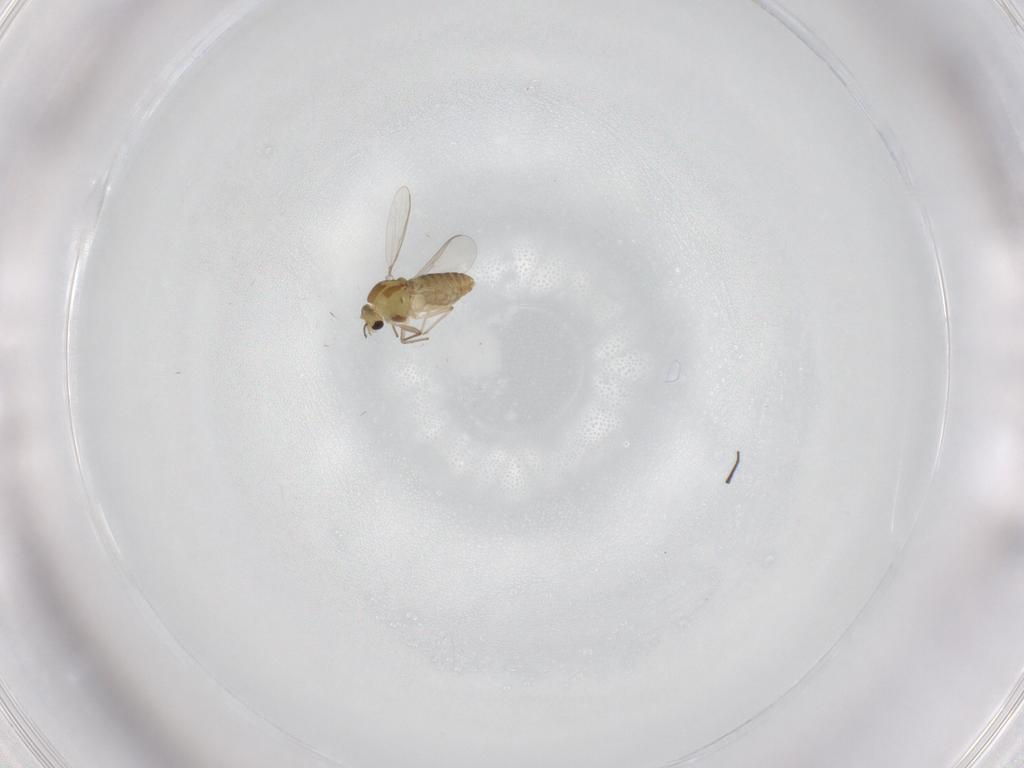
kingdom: Animalia
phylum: Arthropoda
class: Insecta
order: Diptera
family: Chironomidae
